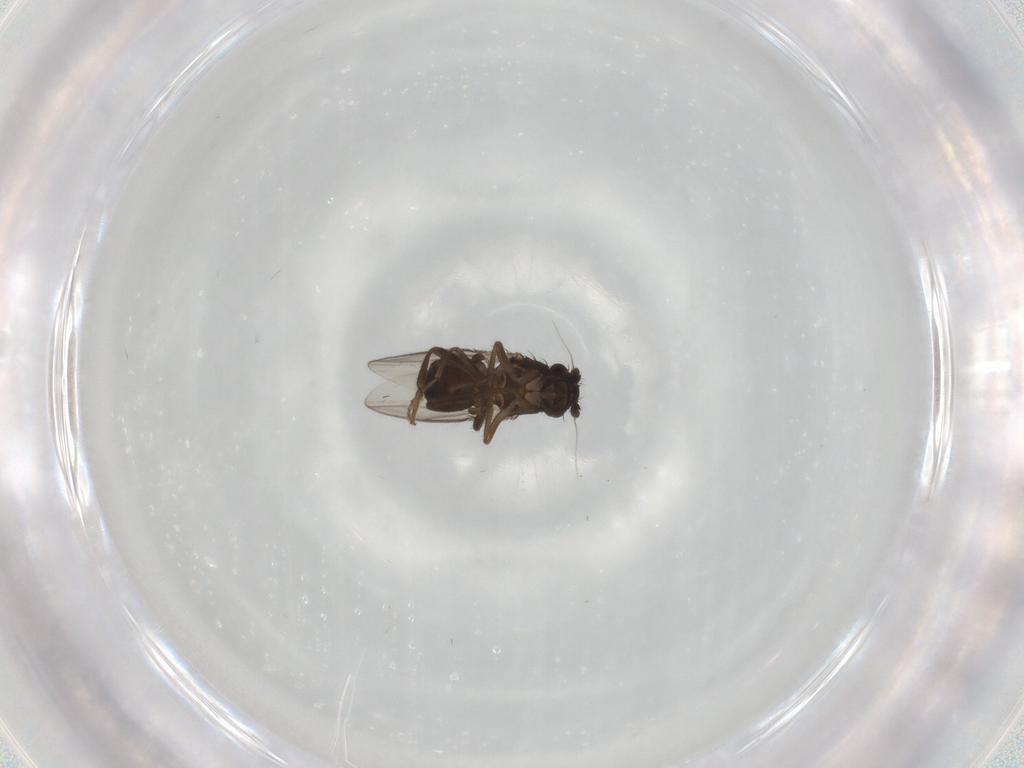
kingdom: Animalia
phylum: Arthropoda
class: Insecta
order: Diptera
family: Sphaeroceridae
